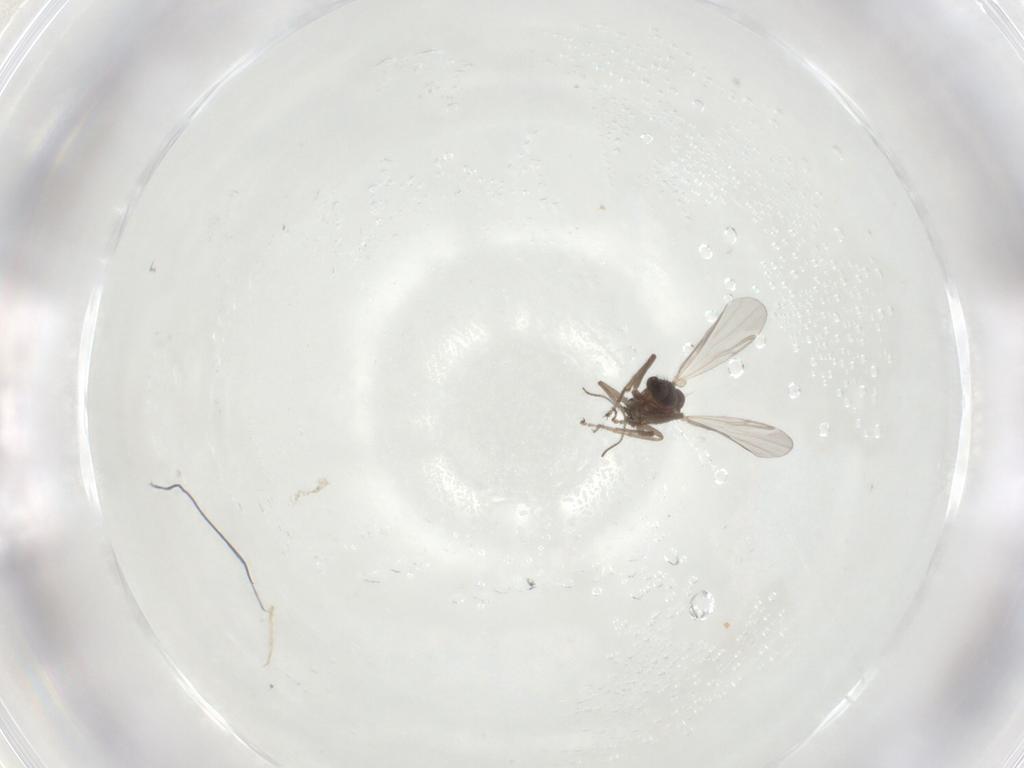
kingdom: Animalia
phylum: Arthropoda
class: Insecta
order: Diptera
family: Ceratopogonidae
